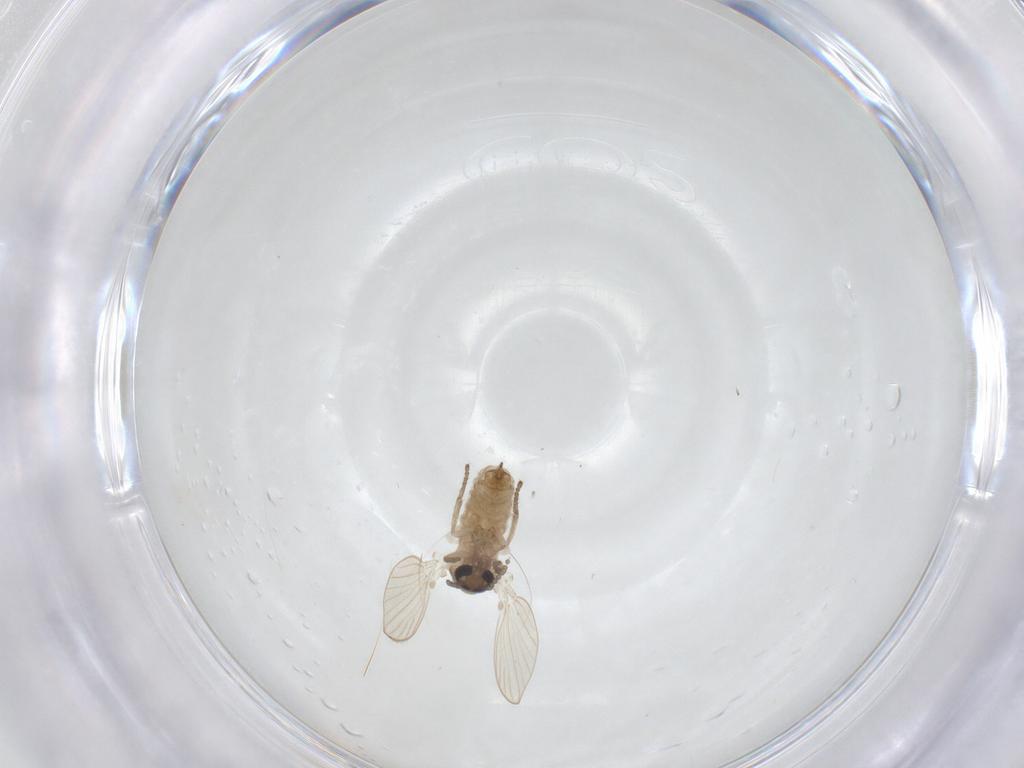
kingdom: Animalia
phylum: Arthropoda
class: Insecta
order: Diptera
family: Psychodidae
